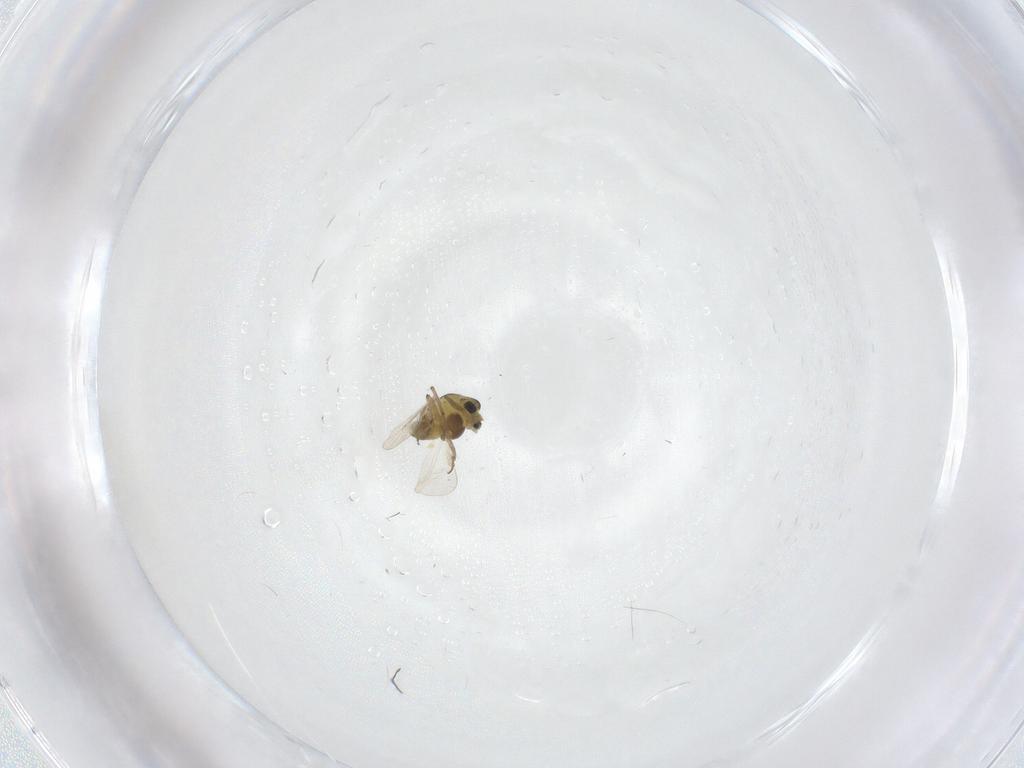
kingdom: Animalia
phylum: Arthropoda
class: Insecta
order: Diptera
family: Chironomidae
